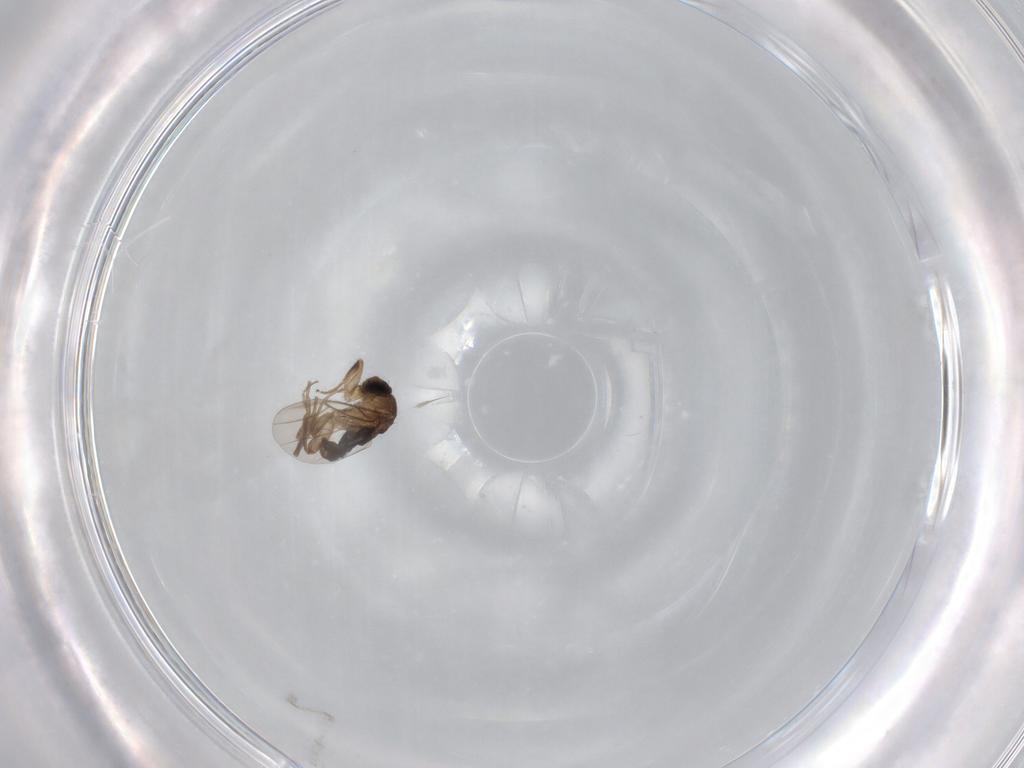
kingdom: Animalia
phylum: Arthropoda
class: Insecta
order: Diptera
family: Phoridae
